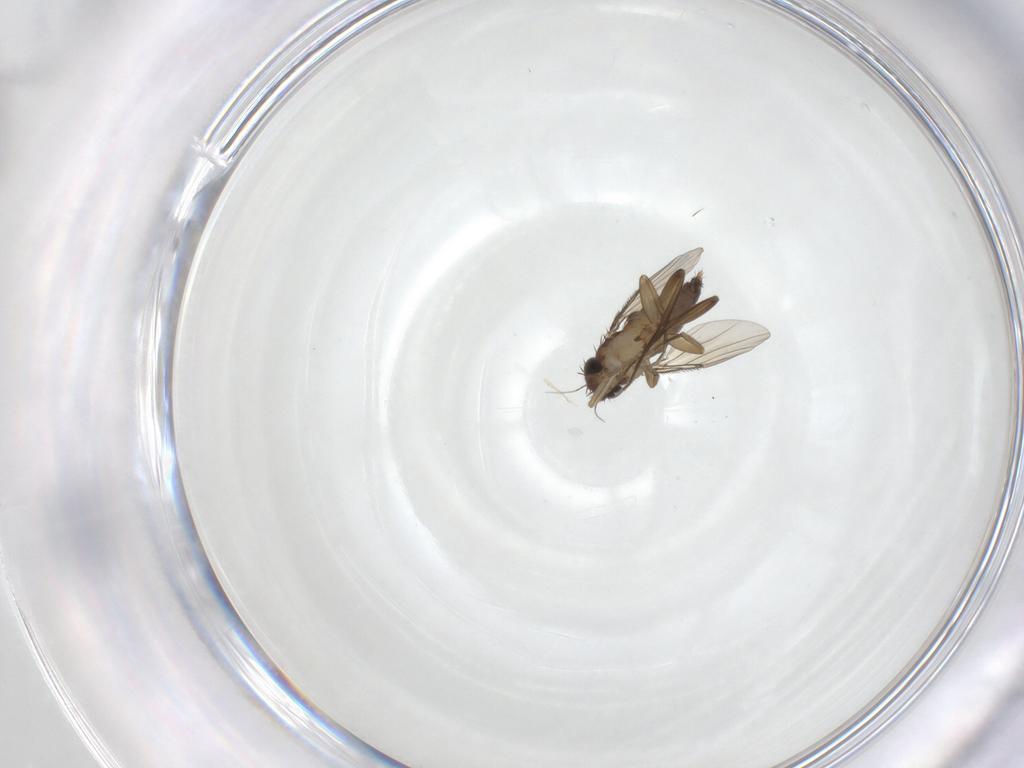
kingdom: Animalia
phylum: Arthropoda
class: Insecta
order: Diptera
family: Phoridae
